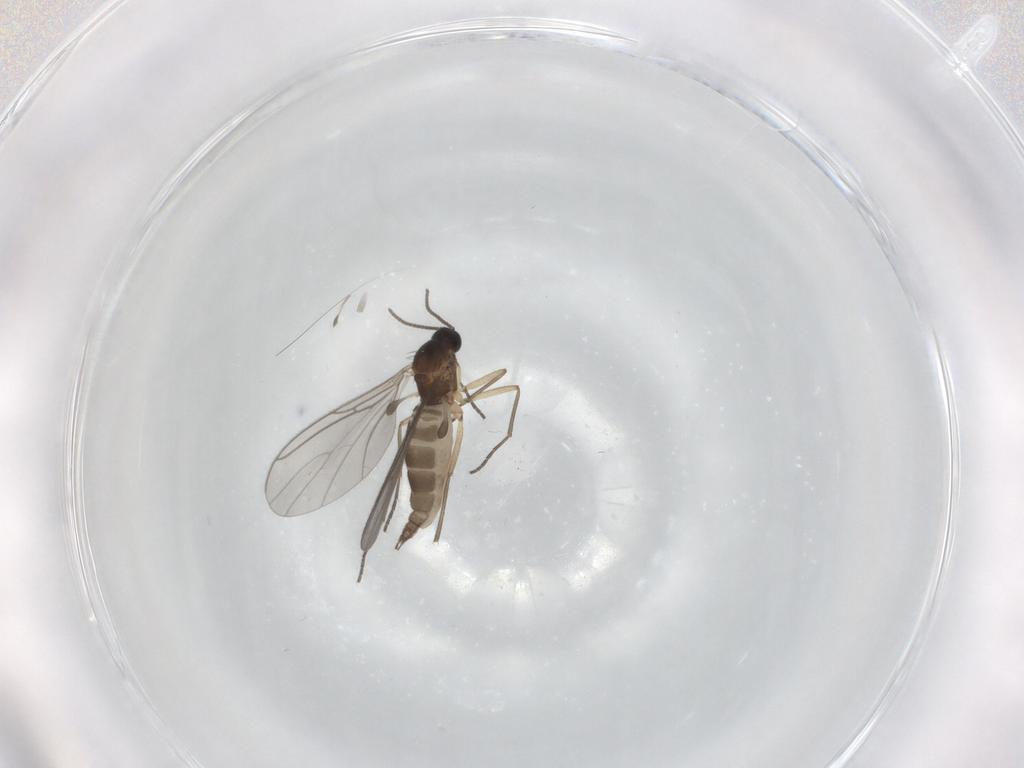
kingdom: Animalia
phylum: Arthropoda
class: Insecta
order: Diptera
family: Sciaridae
